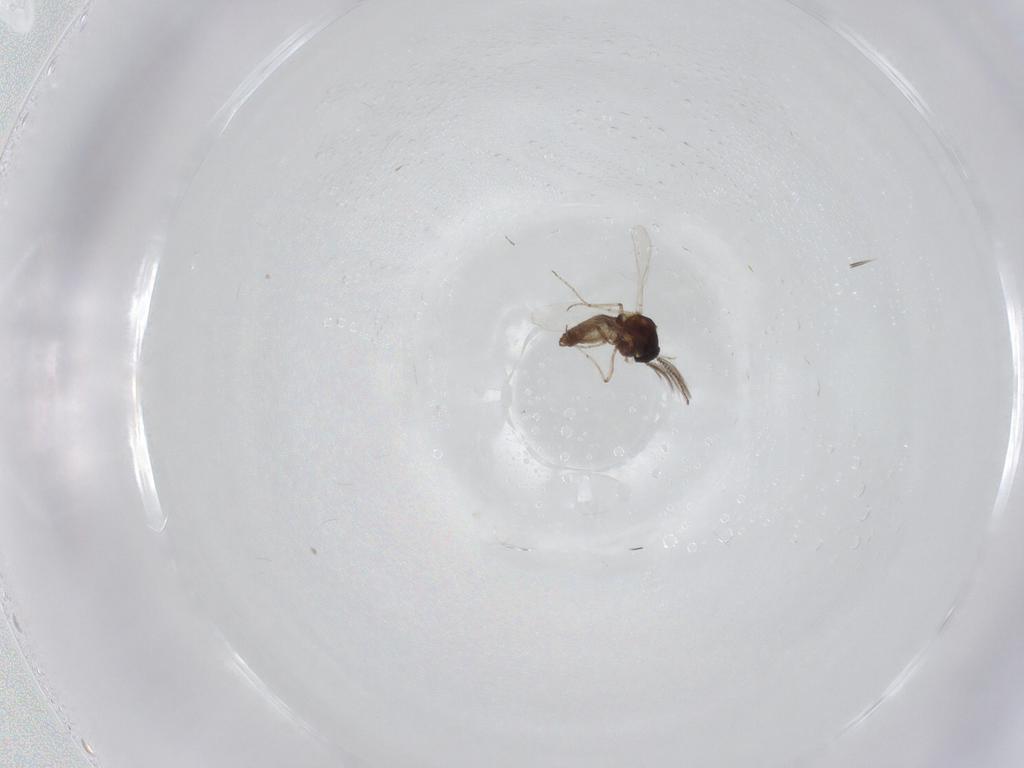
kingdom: Animalia
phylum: Arthropoda
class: Insecta
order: Diptera
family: Ceratopogonidae
